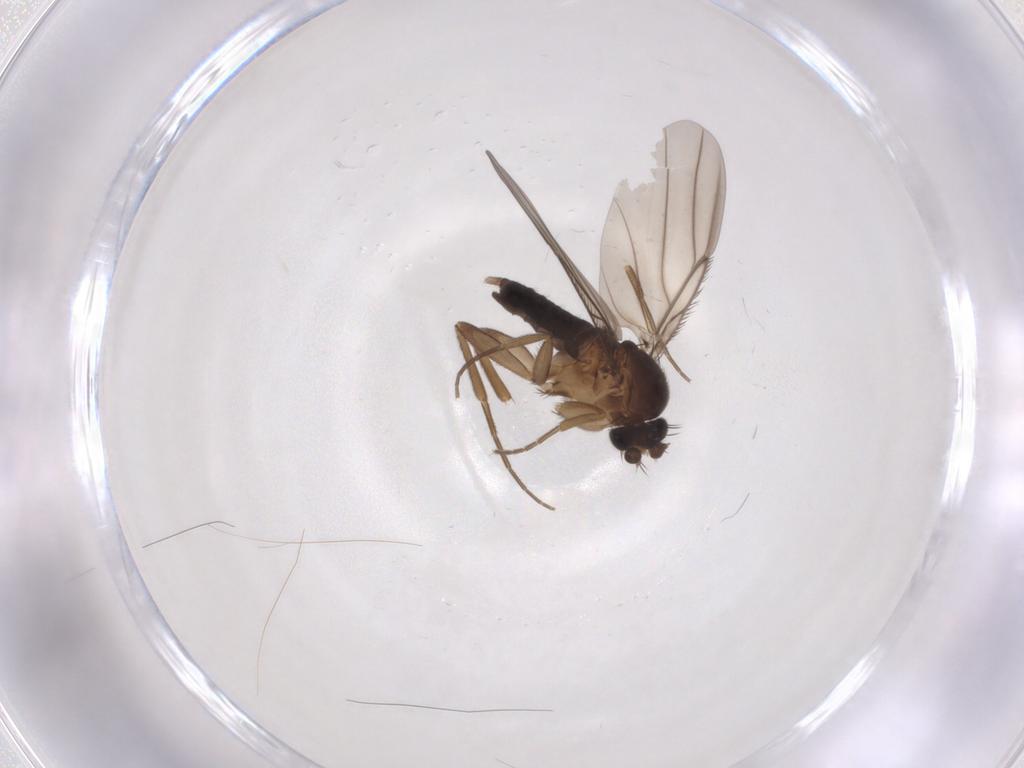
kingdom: Animalia
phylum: Arthropoda
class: Insecta
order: Diptera
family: Phoridae
